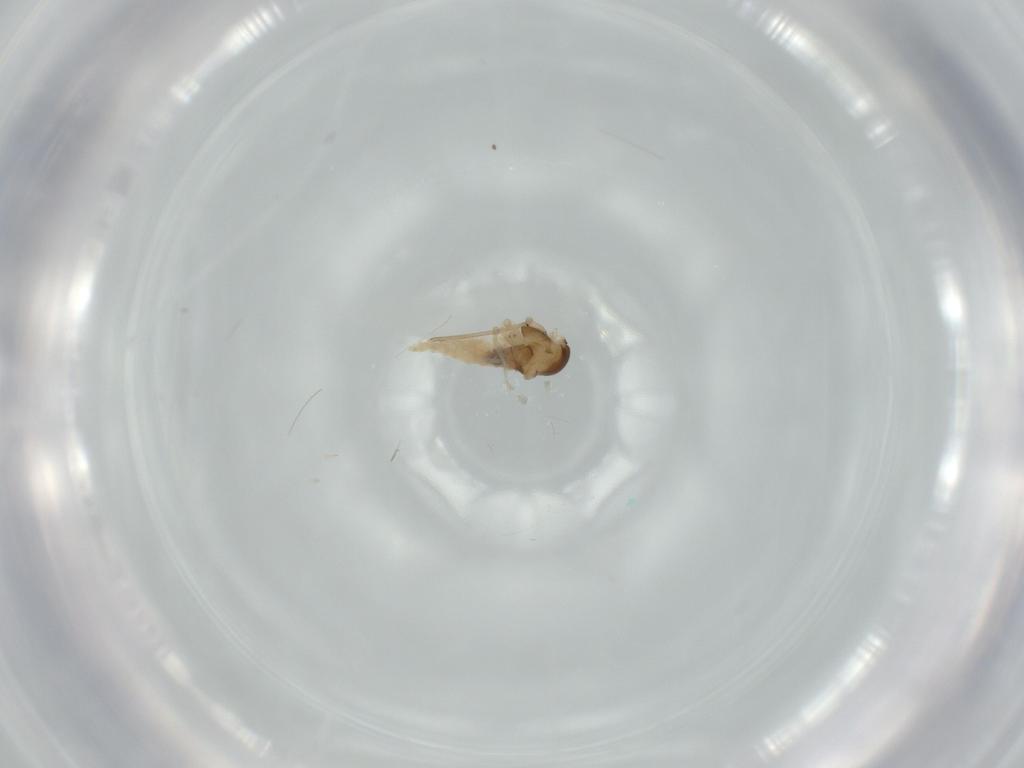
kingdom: Animalia
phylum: Arthropoda
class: Insecta
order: Diptera
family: Cecidomyiidae
